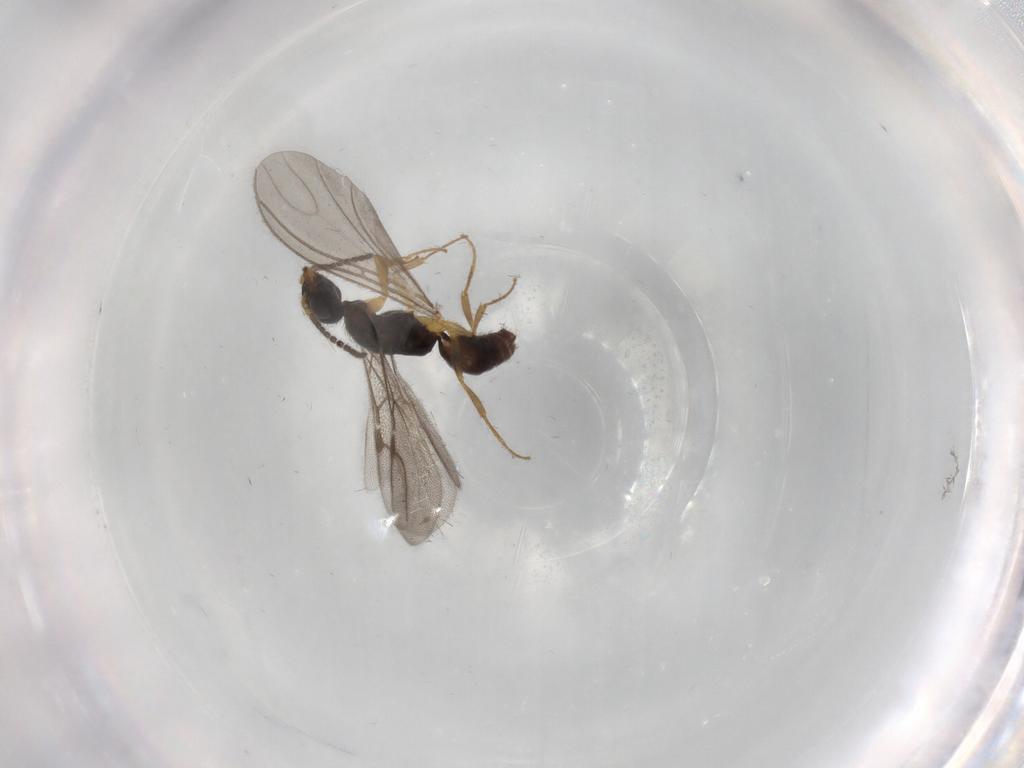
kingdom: Animalia
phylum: Arthropoda
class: Insecta
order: Hymenoptera
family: Bethylidae
